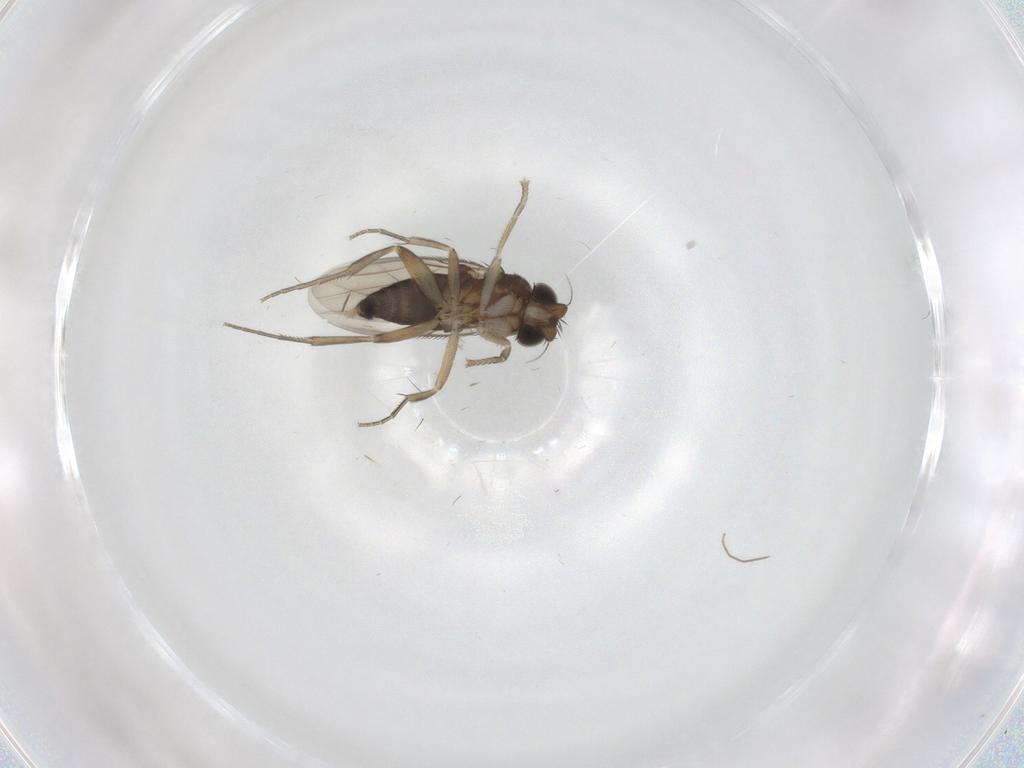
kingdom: Animalia
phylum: Arthropoda
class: Insecta
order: Diptera
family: Phoridae
